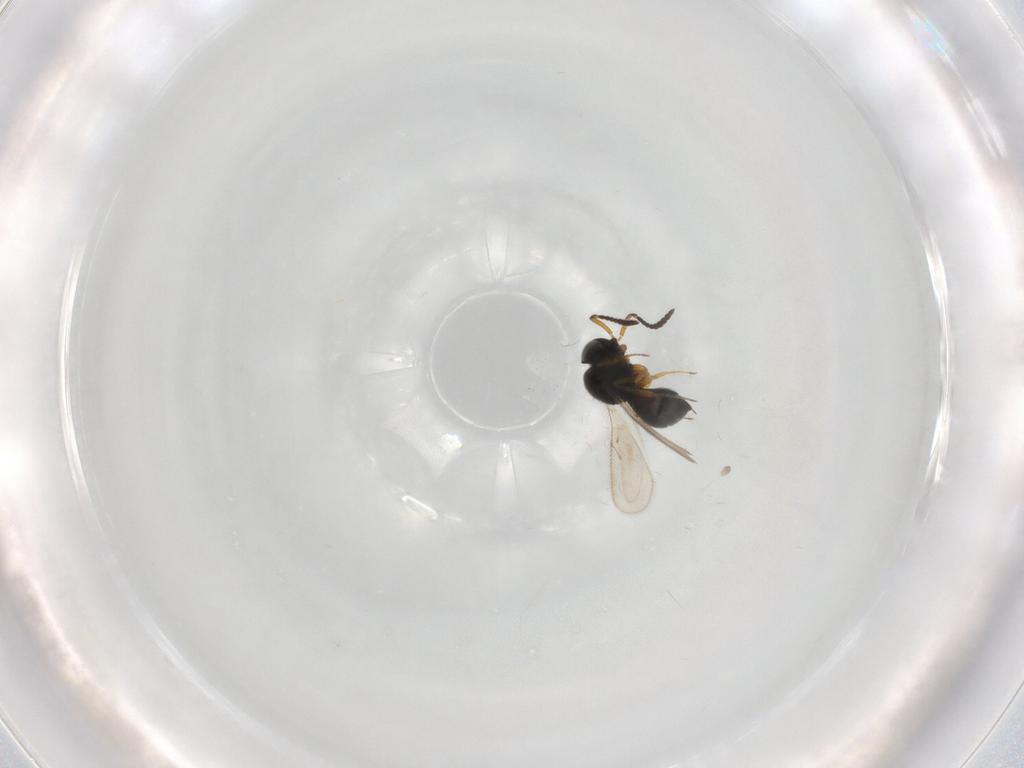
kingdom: Animalia
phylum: Arthropoda
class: Insecta
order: Hymenoptera
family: Scelionidae
